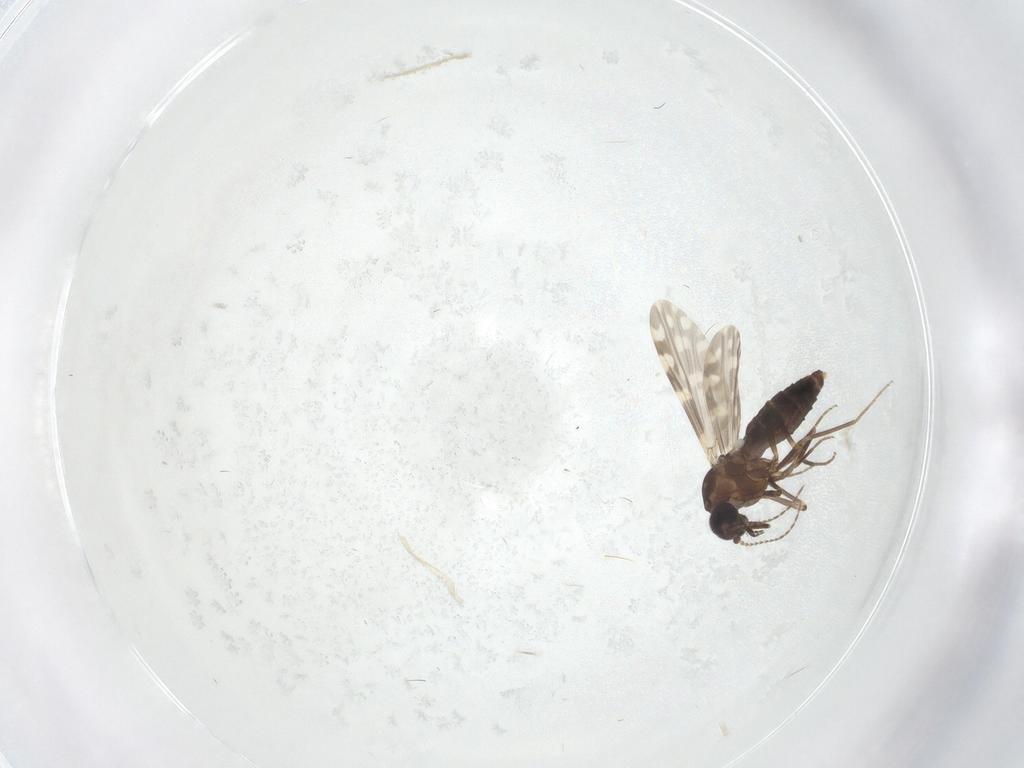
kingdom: Animalia
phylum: Arthropoda
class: Insecta
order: Diptera
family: Ceratopogonidae
